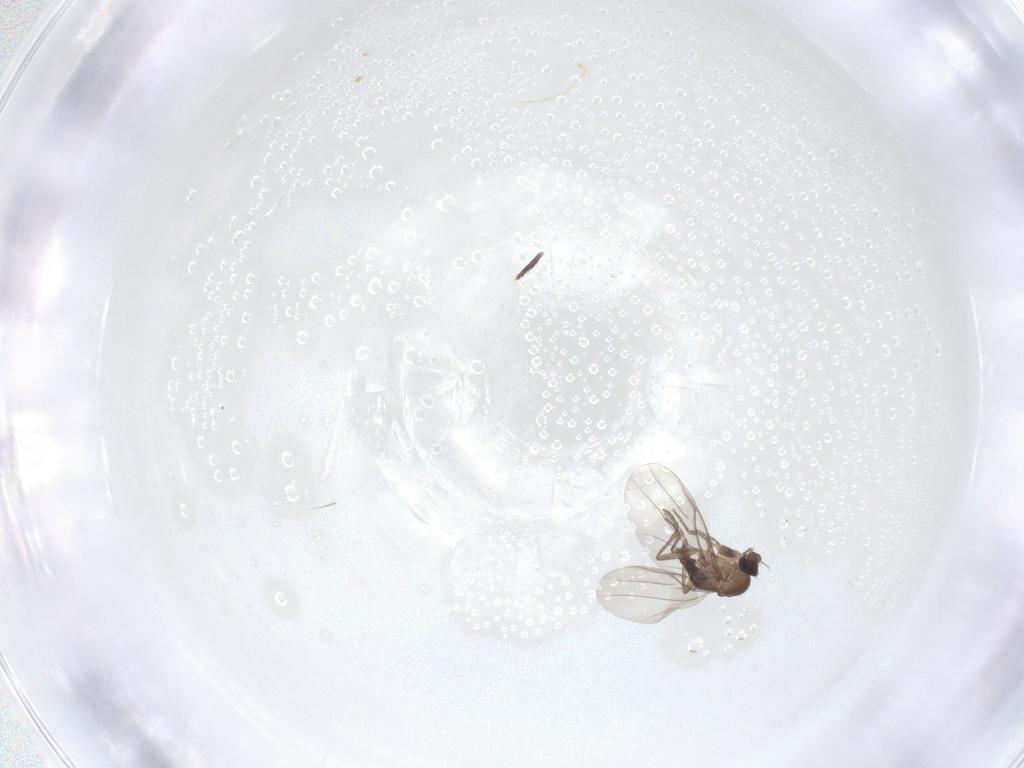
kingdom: Animalia
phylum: Arthropoda
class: Insecta
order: Diptera
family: Phoridae
